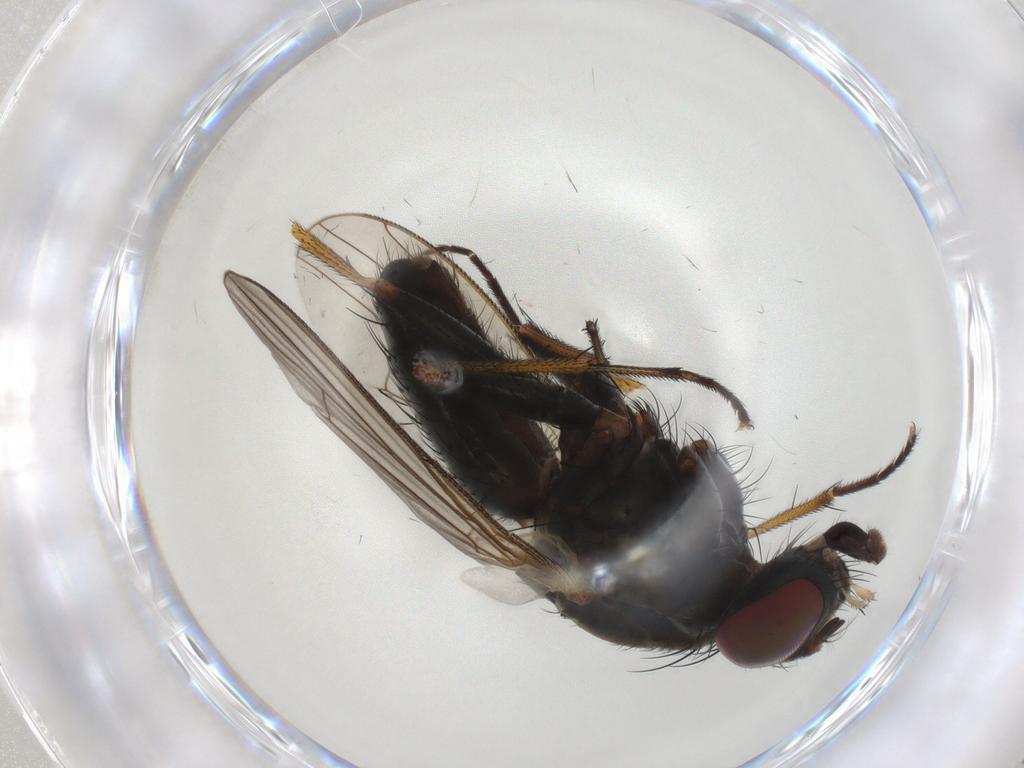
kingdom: Animalia
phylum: Arthropoda
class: Insecta
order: Diptera
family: Muscidae
